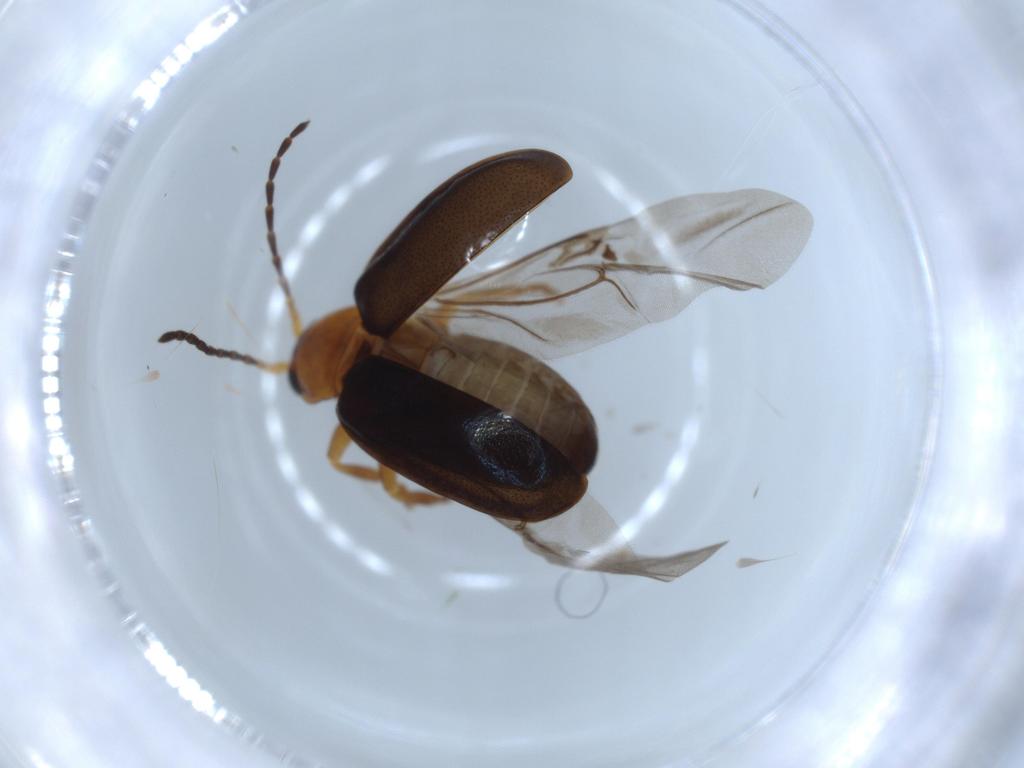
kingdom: Animalia
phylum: Arthropoda
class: Insecta
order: Coleoptera
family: Chrysomelidae
